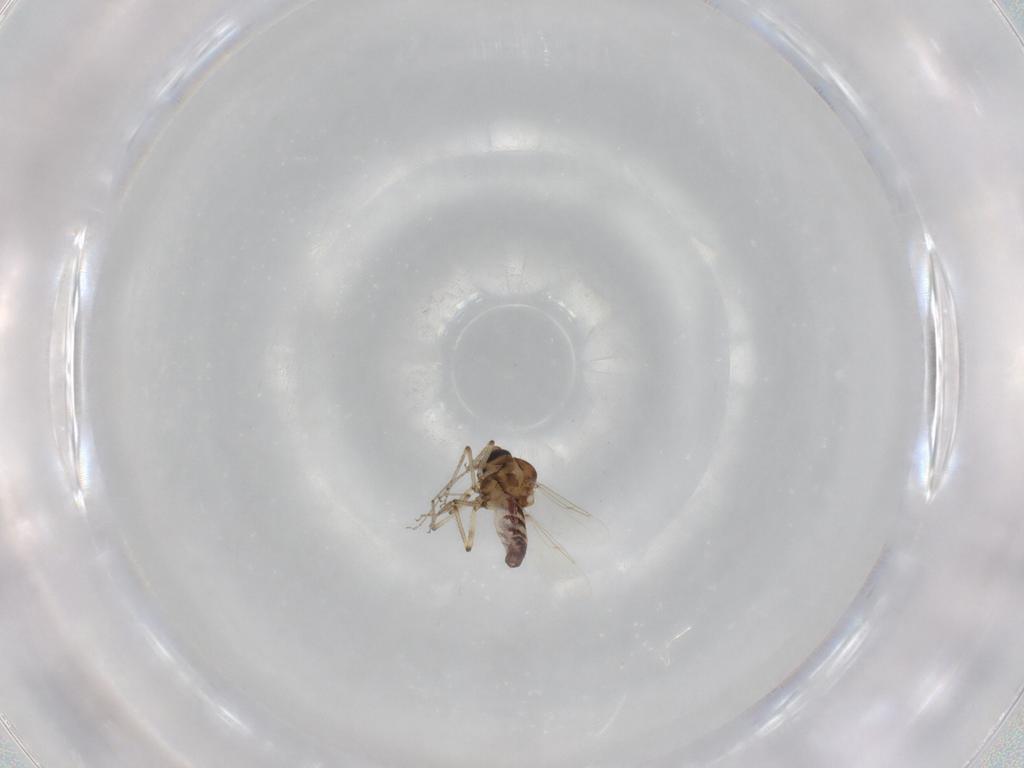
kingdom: Animalia
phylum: Arthropoda
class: Insecta
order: Diptera
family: Ceratopogonidae
